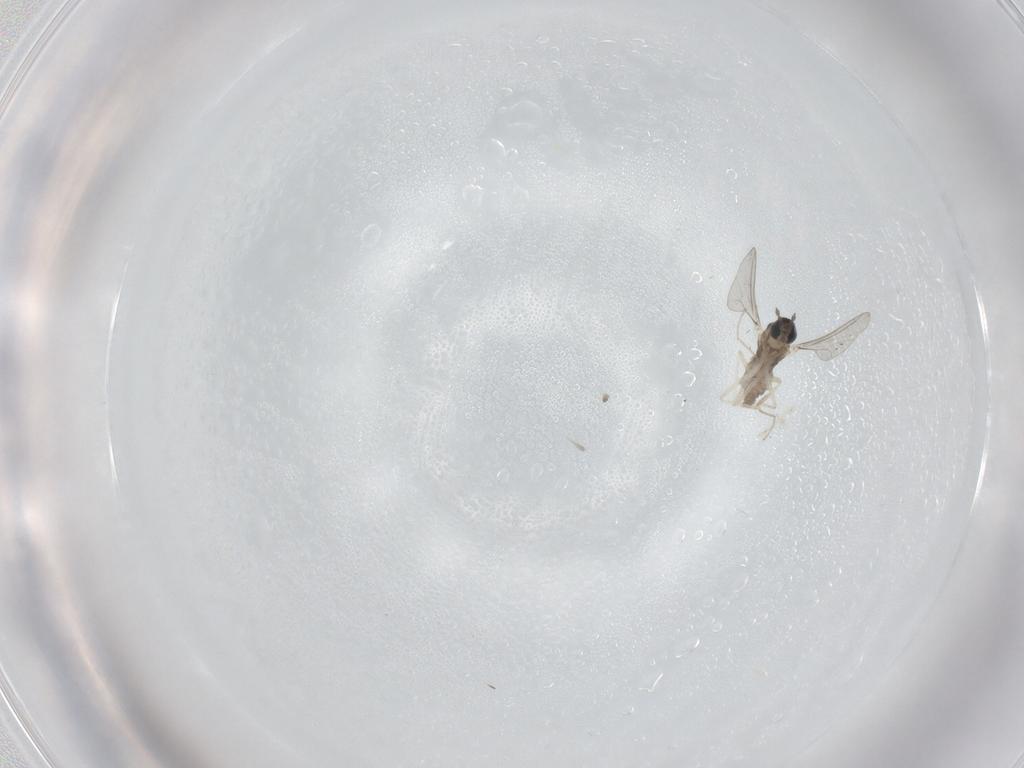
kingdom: Animalia
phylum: Arthropoda
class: Insecta
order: Diptera
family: Cecidomyiidae
